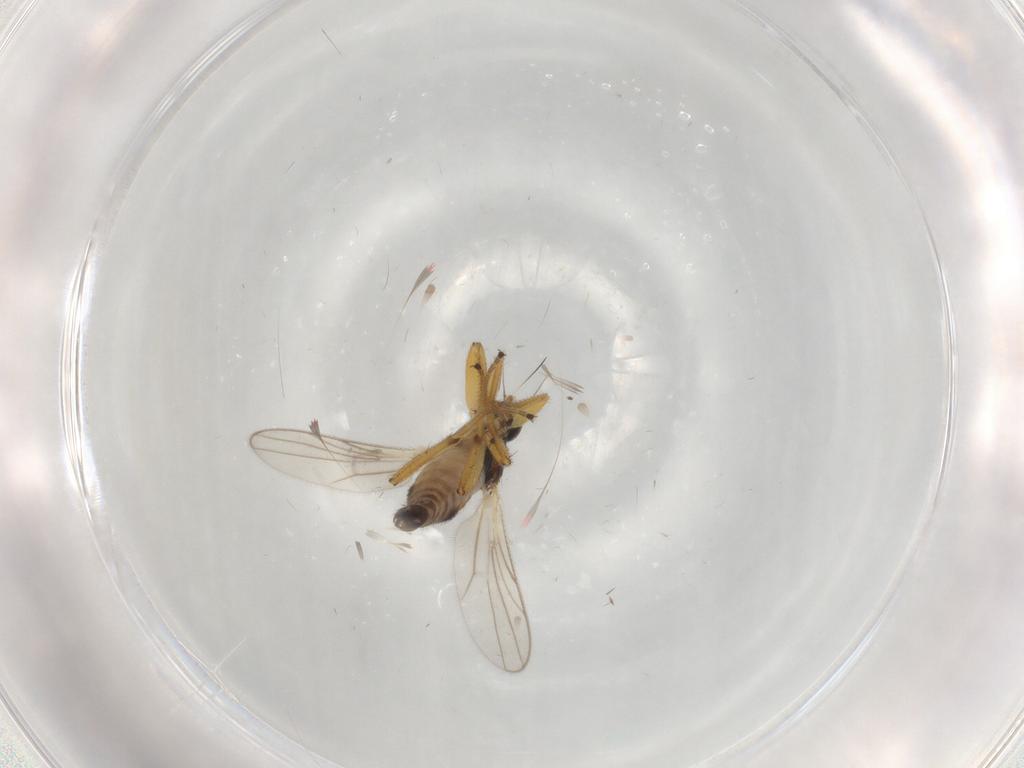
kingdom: Animalia
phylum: Arthropoda
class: Insecta
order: Diptera
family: Hybotidae
